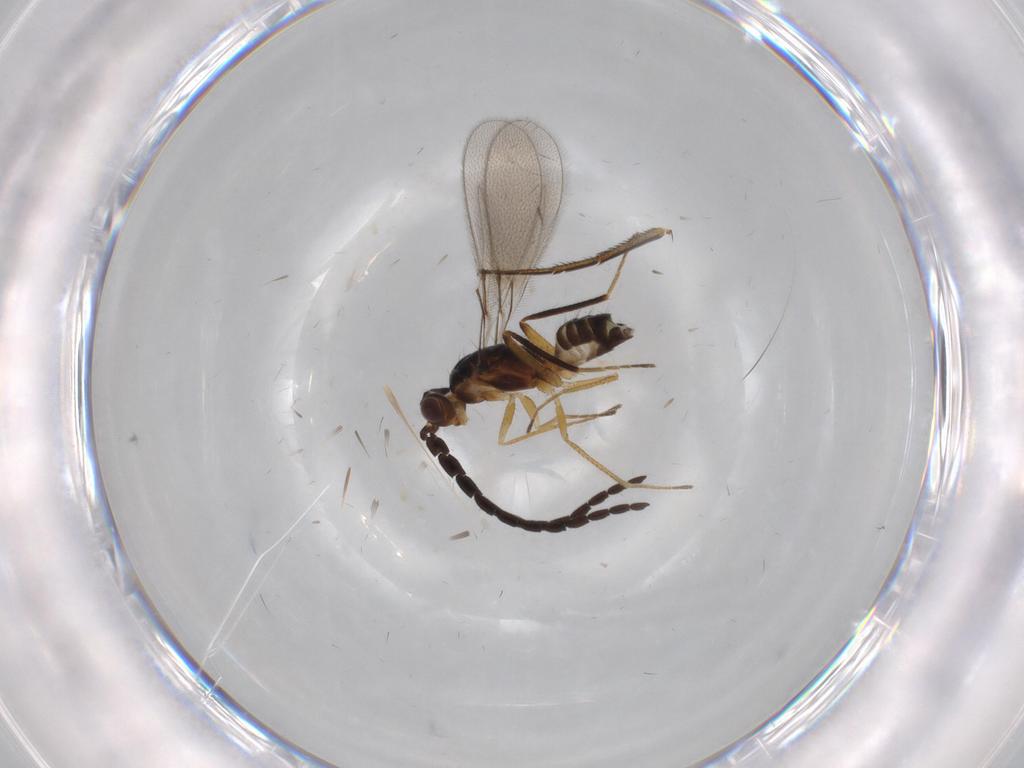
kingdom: Animalia
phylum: Arthropoda
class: Insecta
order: Hymenoptera
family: Mymaridae
